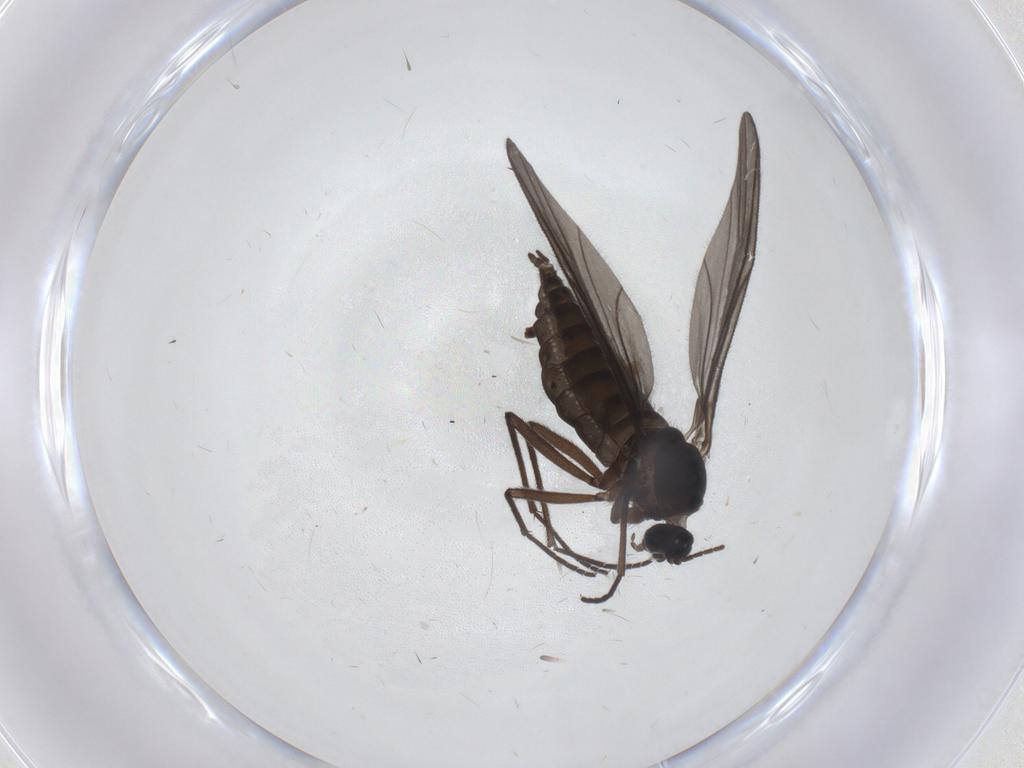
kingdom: Animalia
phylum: Arthropoda
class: Insecta
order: Diptera
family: Sciaridae
